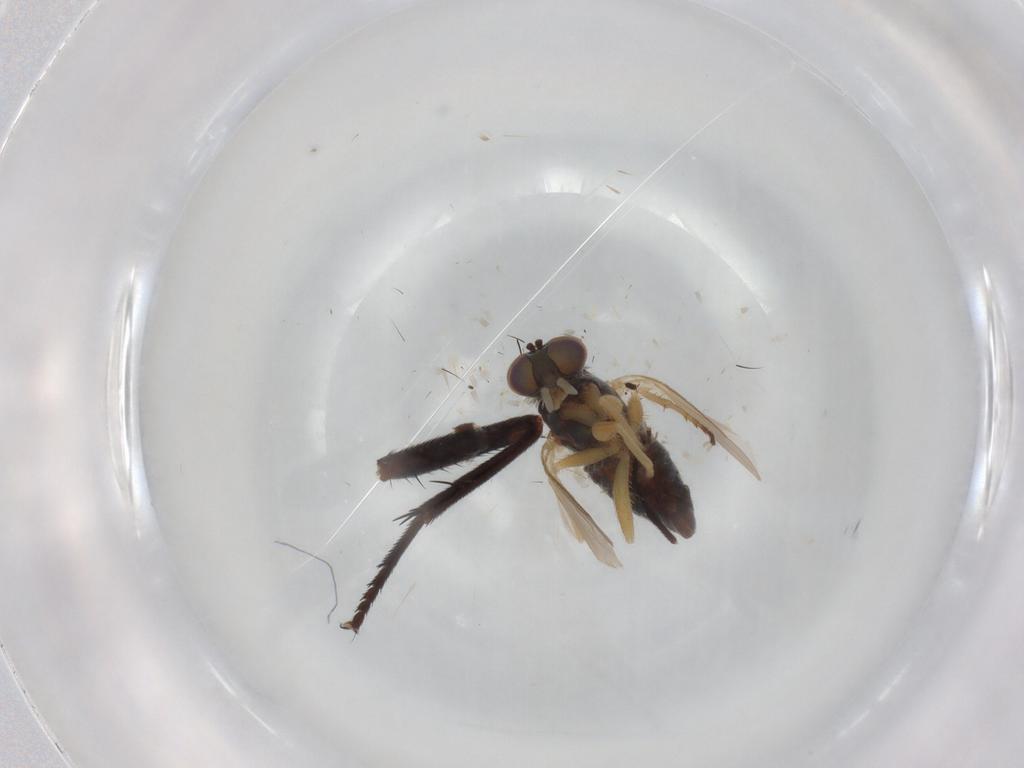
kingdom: Animalia
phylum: Arthropoda
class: Insecta
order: Diptera
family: Dolichopodidae
